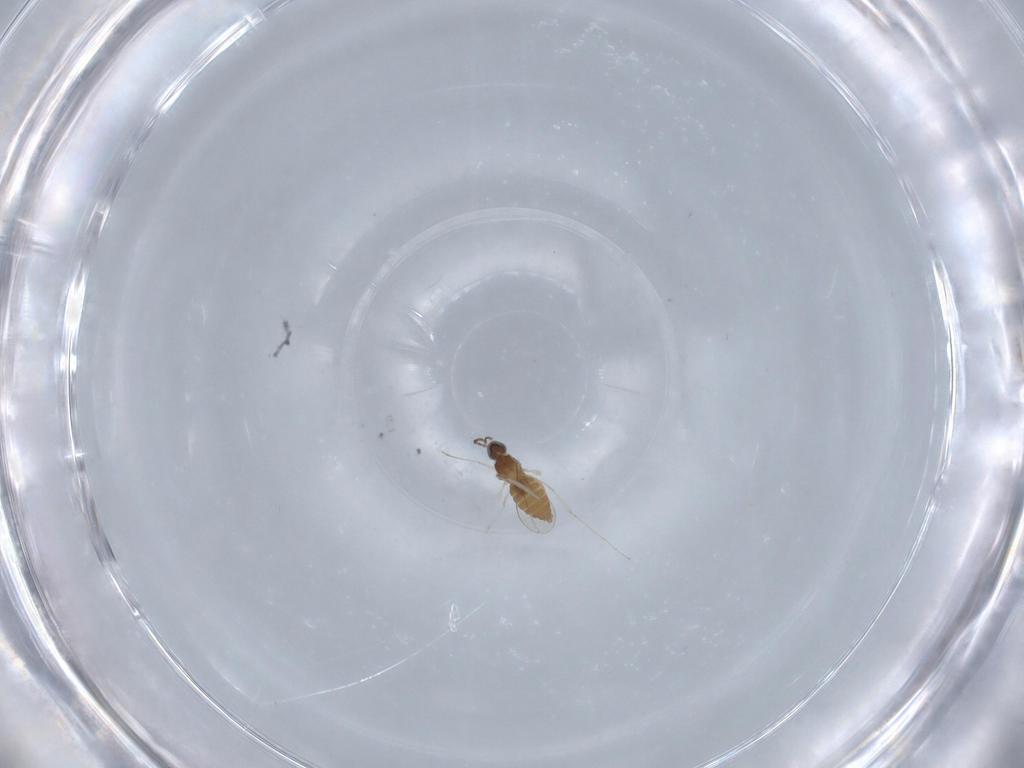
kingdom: Animalia
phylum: Arthropoda
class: Insecta
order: Diptera
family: Cecidomyiidae
